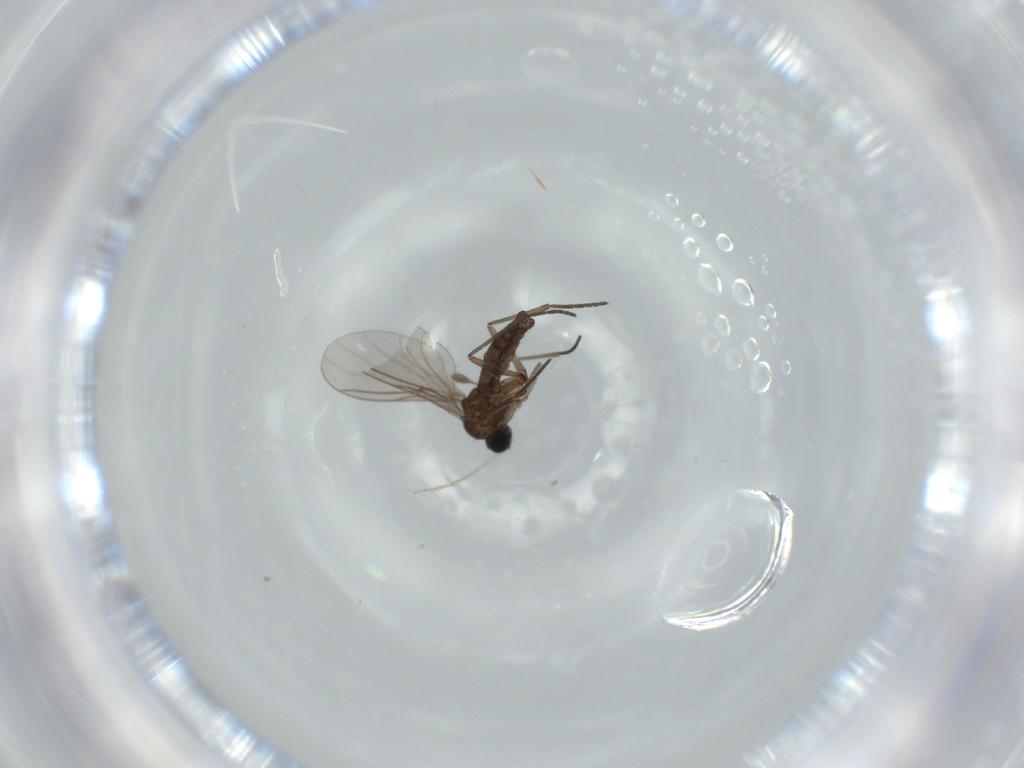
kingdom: Animalia
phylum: Arthropoda
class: Insecta
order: Diptera
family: Chironomidae
